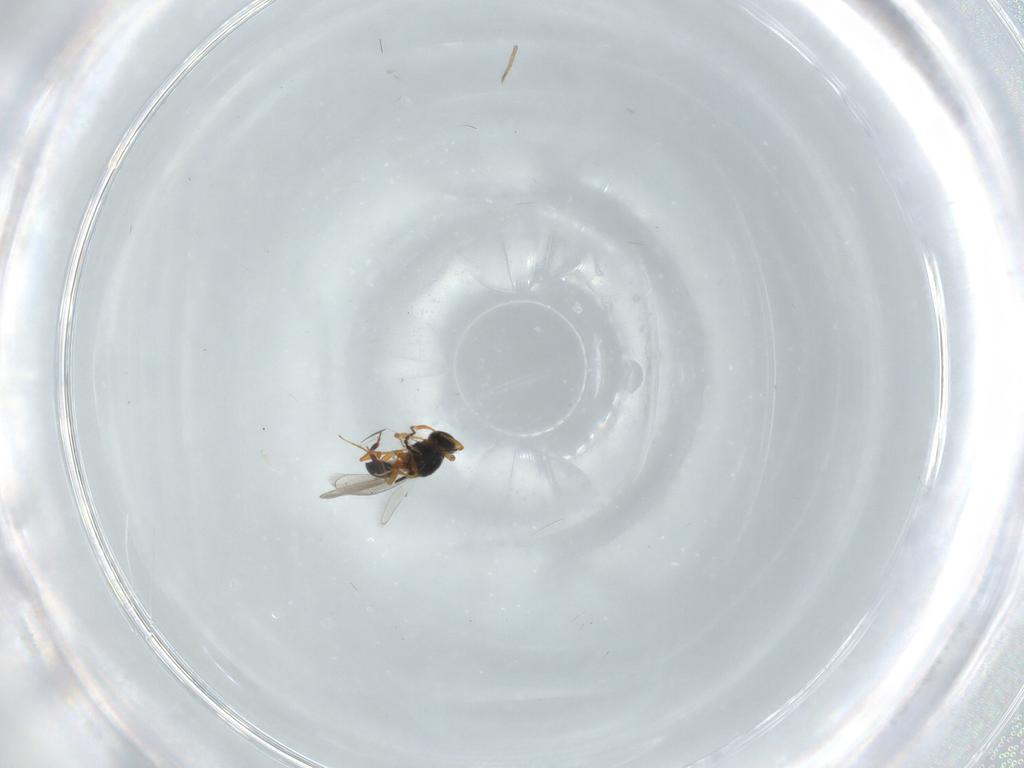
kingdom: Animalia
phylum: Arthropoda
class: Insecta
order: Hymenoptera
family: Platygastridae
